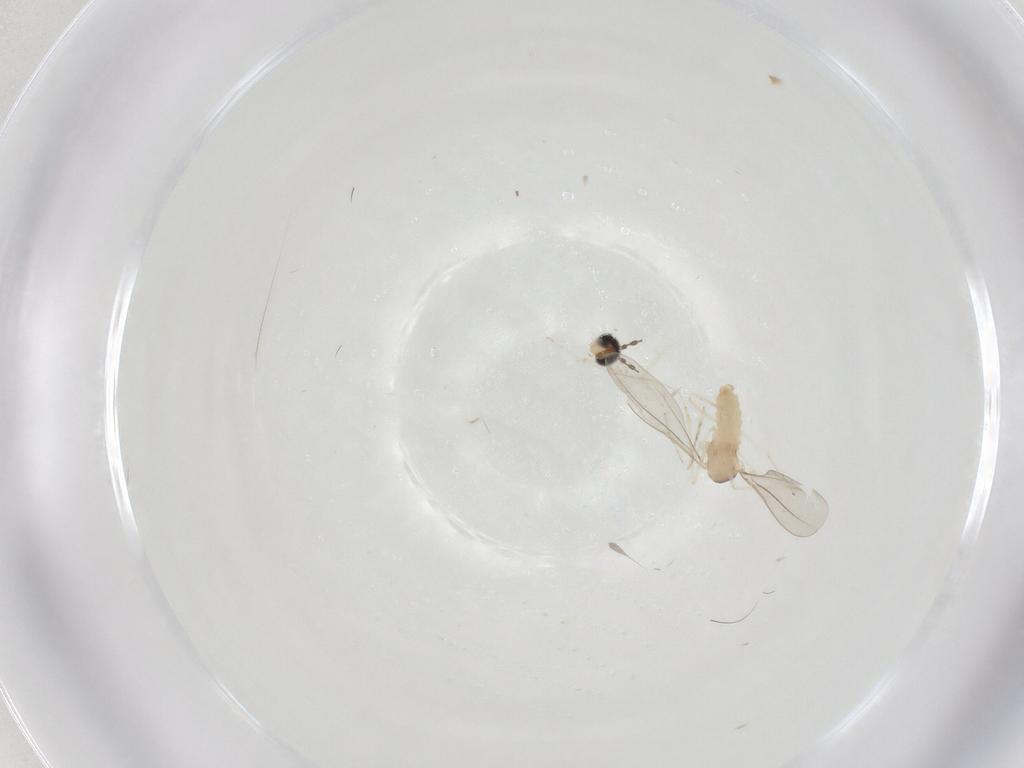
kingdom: Animalia
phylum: Arthropoda
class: Insecta
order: Diptera
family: Cecidomyiidae
